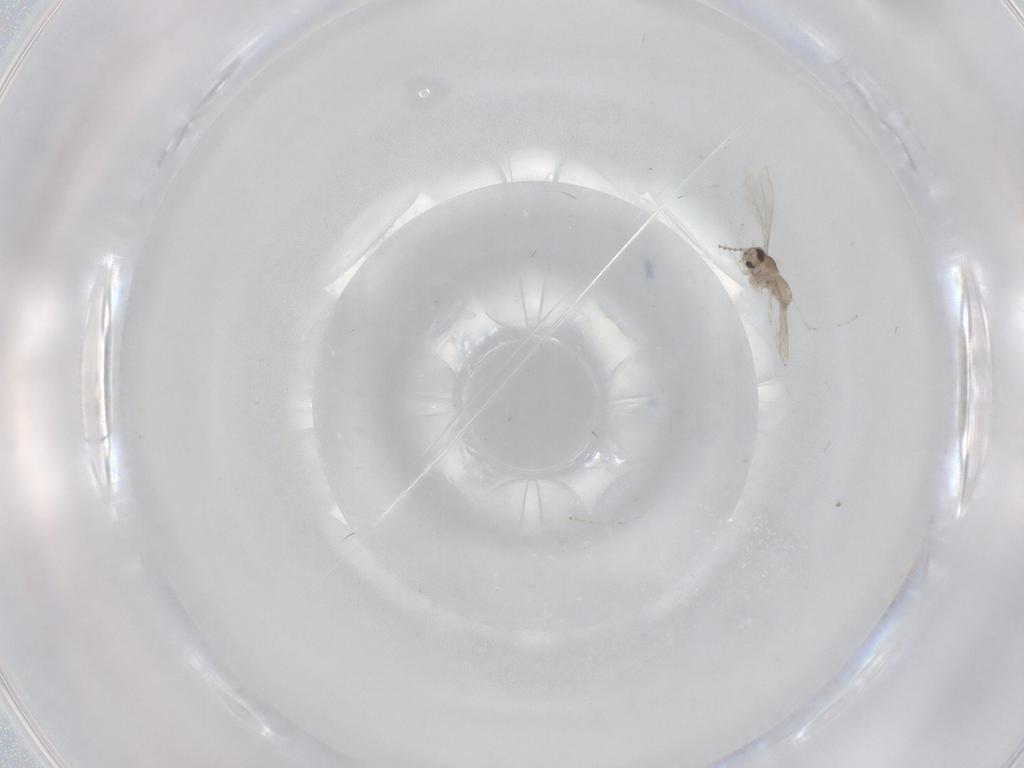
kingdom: Animalia
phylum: Arthropoda
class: Insecta
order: Diptera
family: Cecidomyiidae
